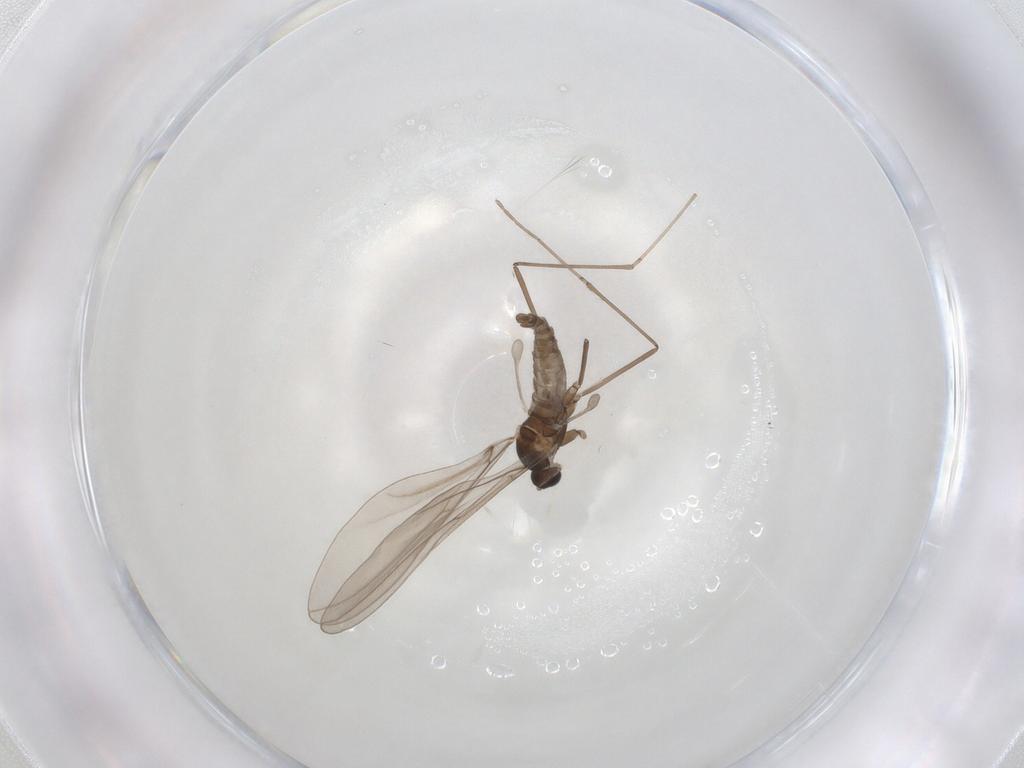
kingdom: Animalia
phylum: Arthropoda
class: Insecta
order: Diptera
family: Cecidomyiidae
